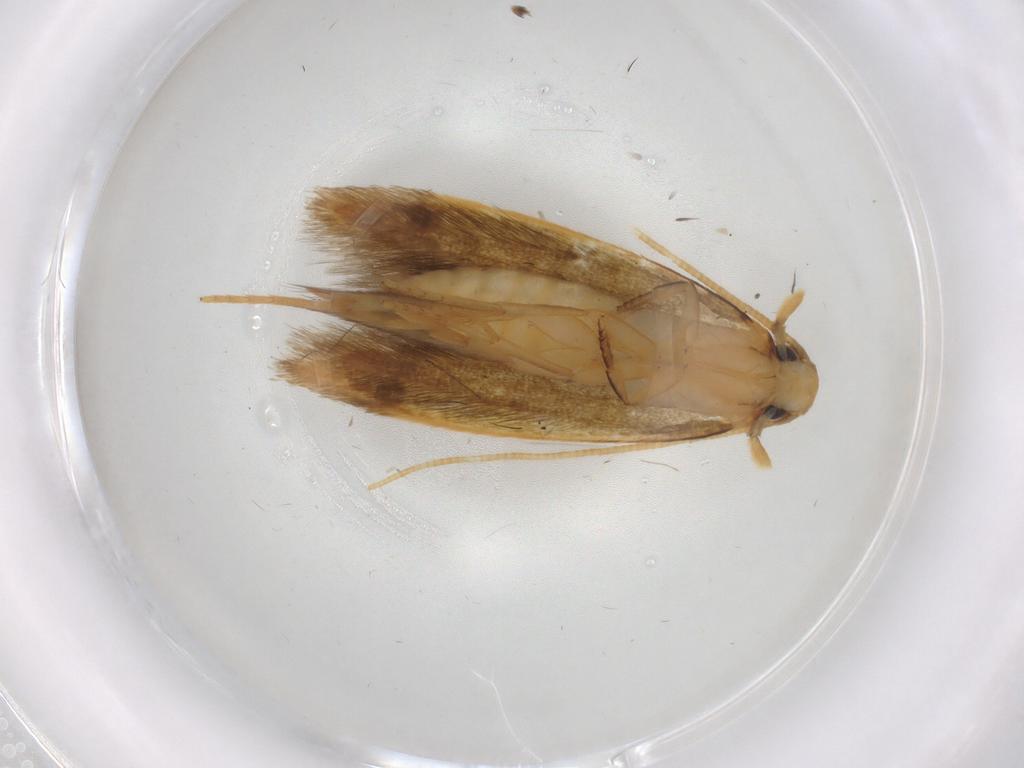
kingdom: Animalia
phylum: Arthropoda
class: Insecta
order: Lepidoptera
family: Tineidae
